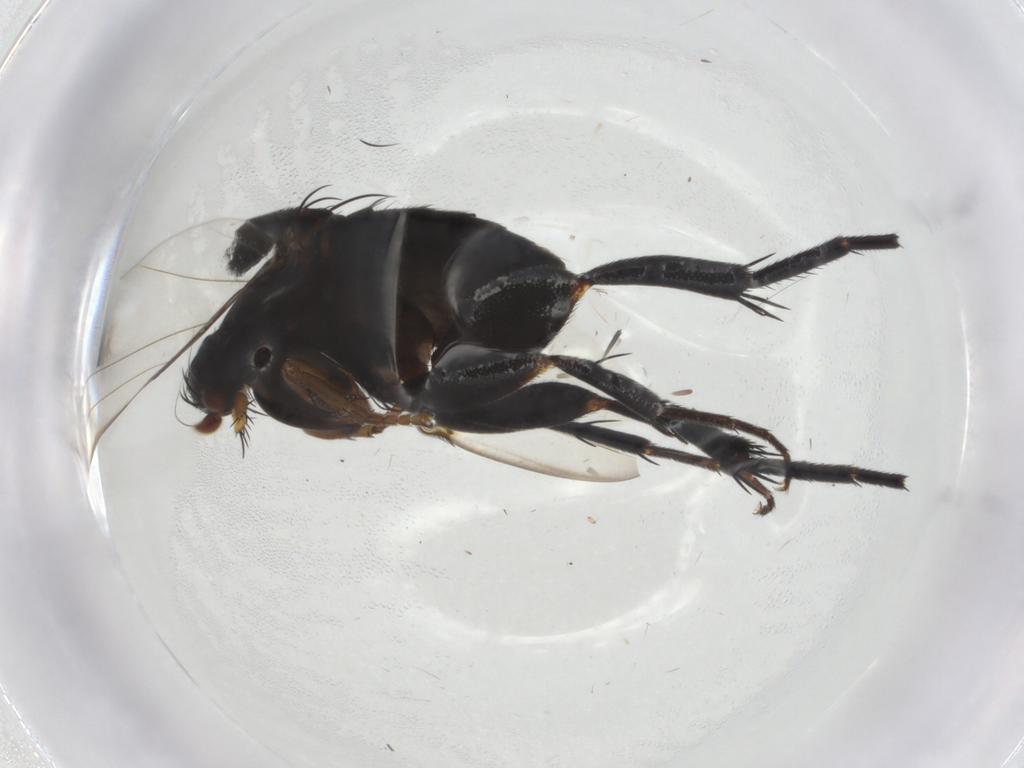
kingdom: Animalia
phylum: Arthropoda
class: Insecta
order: Diptera
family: Phoridae
